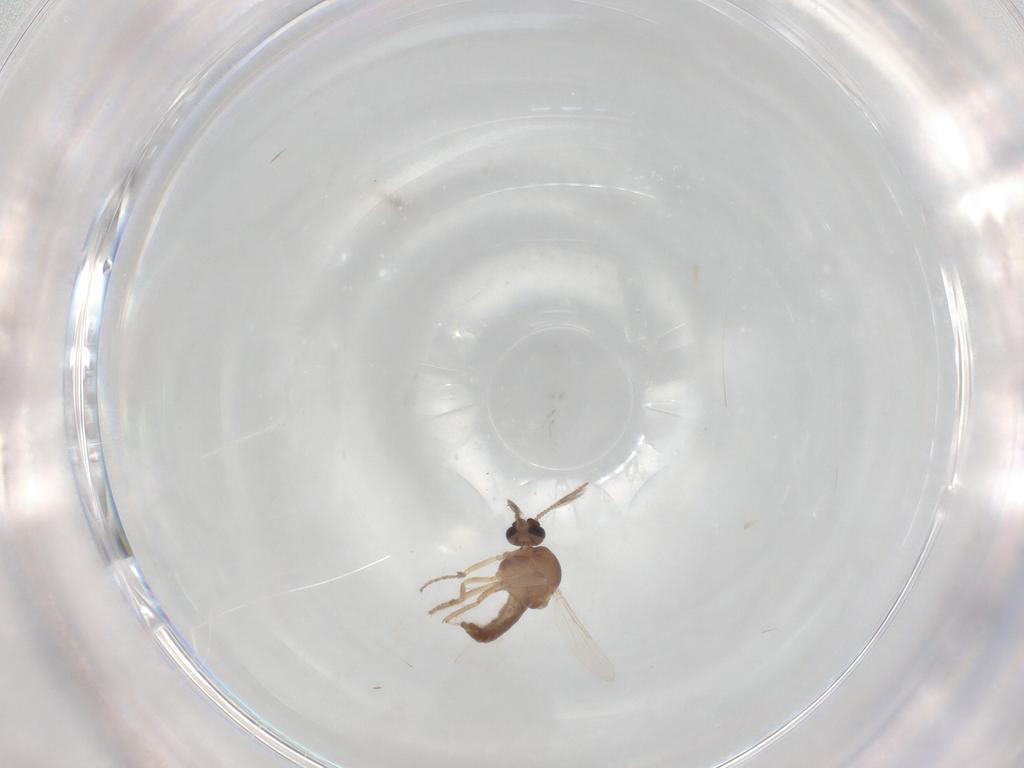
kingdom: Animalia
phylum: Arthropoda
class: Insecta
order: Diptera
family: Ceratopogonidae
